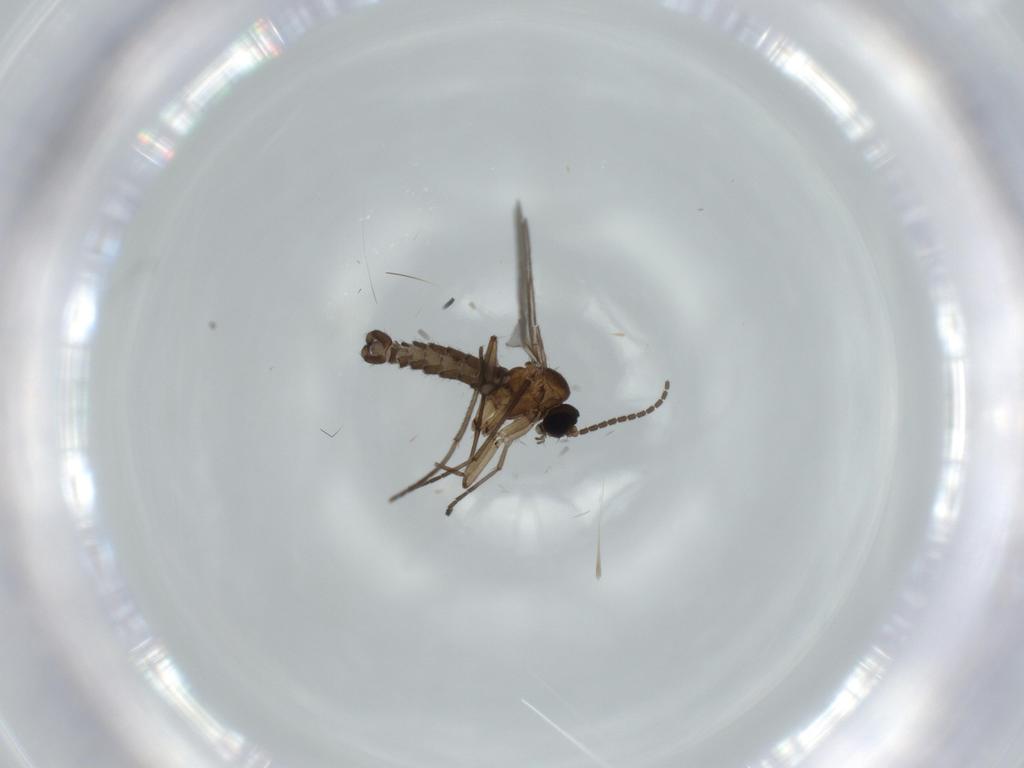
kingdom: Animalia
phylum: Arthropoda
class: Insecta
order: Diptera
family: Sciaridae
